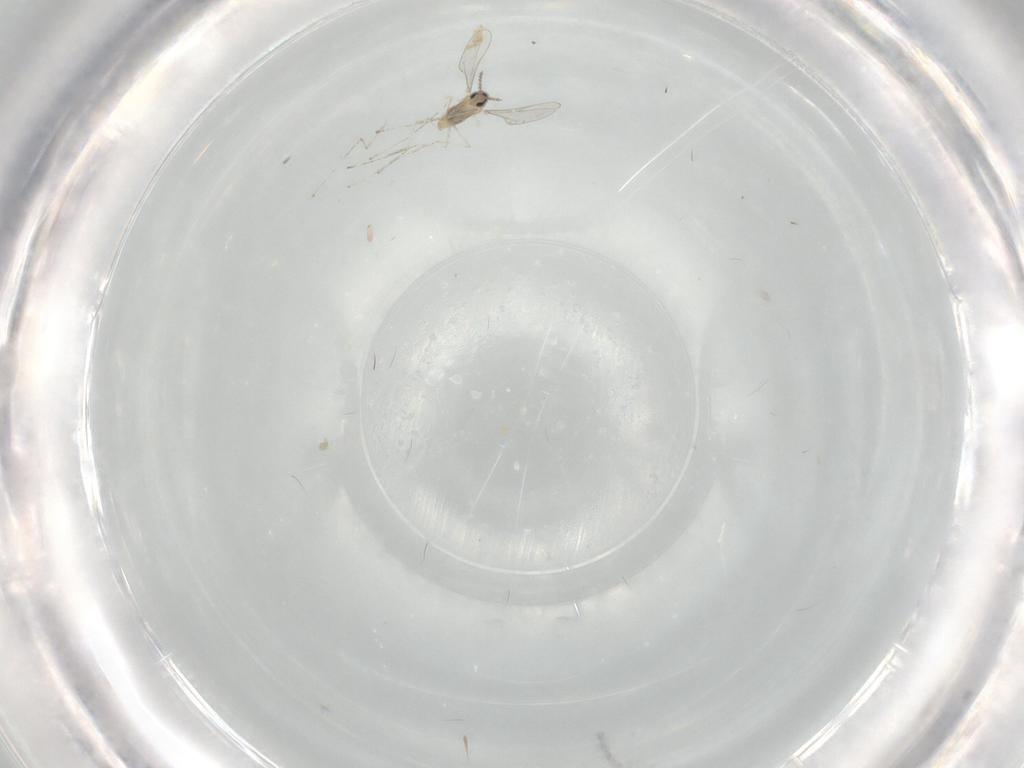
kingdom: Animalia
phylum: Arthropoda
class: Insecta
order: Diptera
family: Cecidomyiidae
